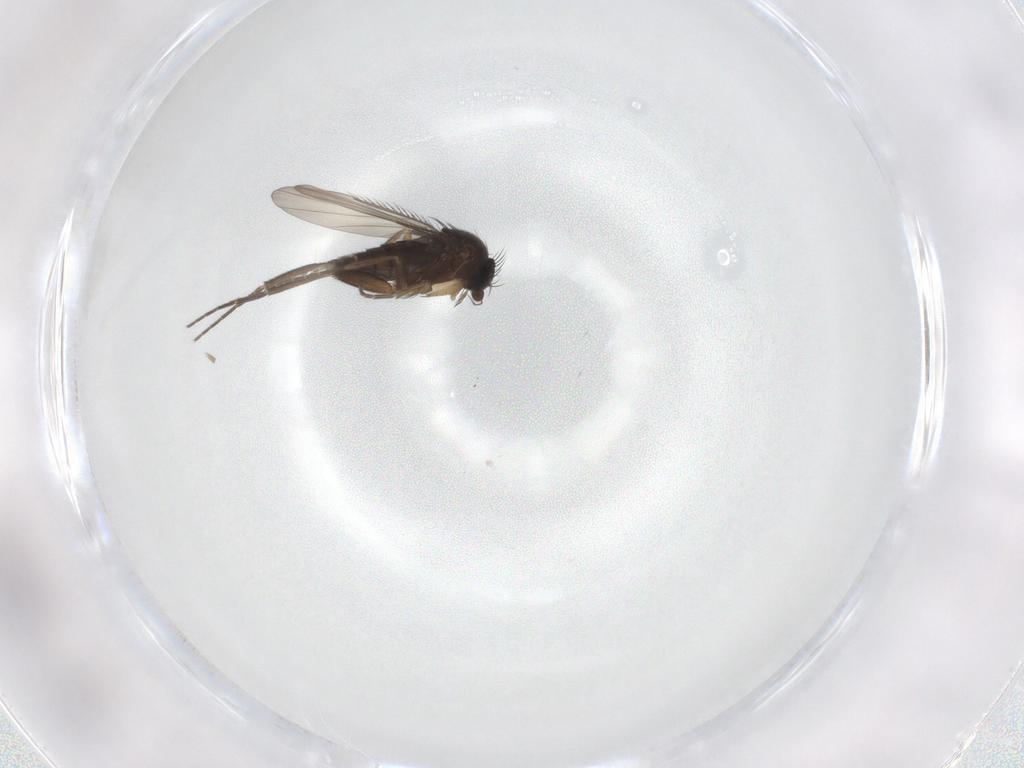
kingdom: Animalia
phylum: Arthropoda
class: Insecta
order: Diptera
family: Phoridae
